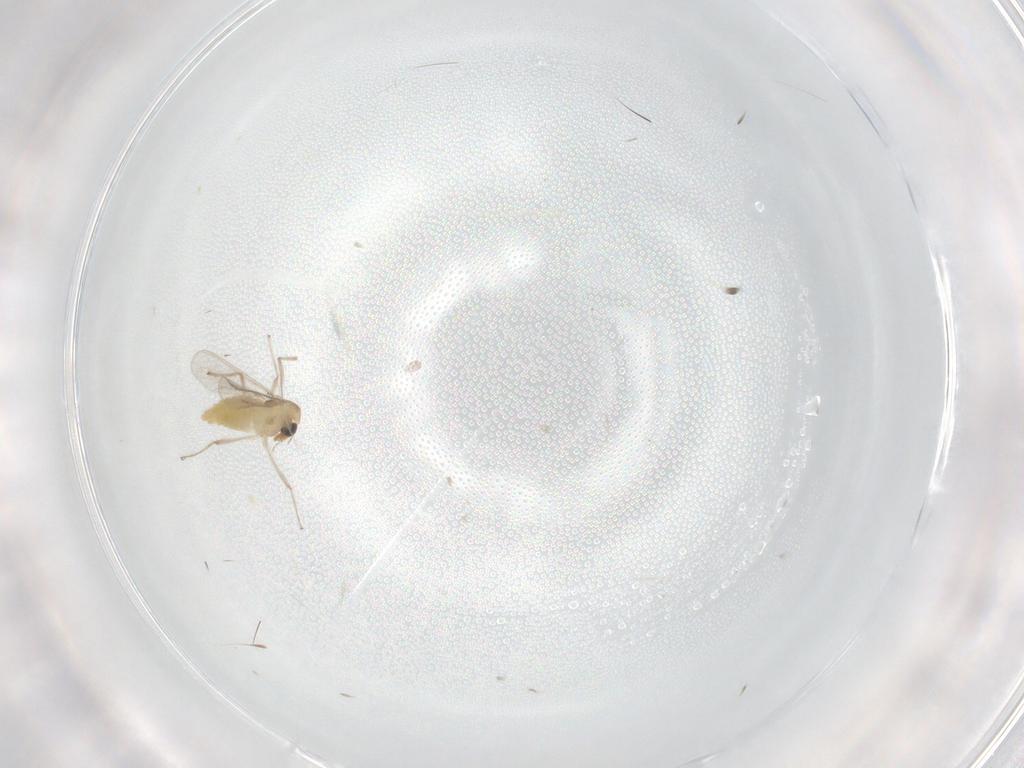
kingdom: Animalia
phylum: Arthropoda
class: Insecta
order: Diptera
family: Chironomidae
